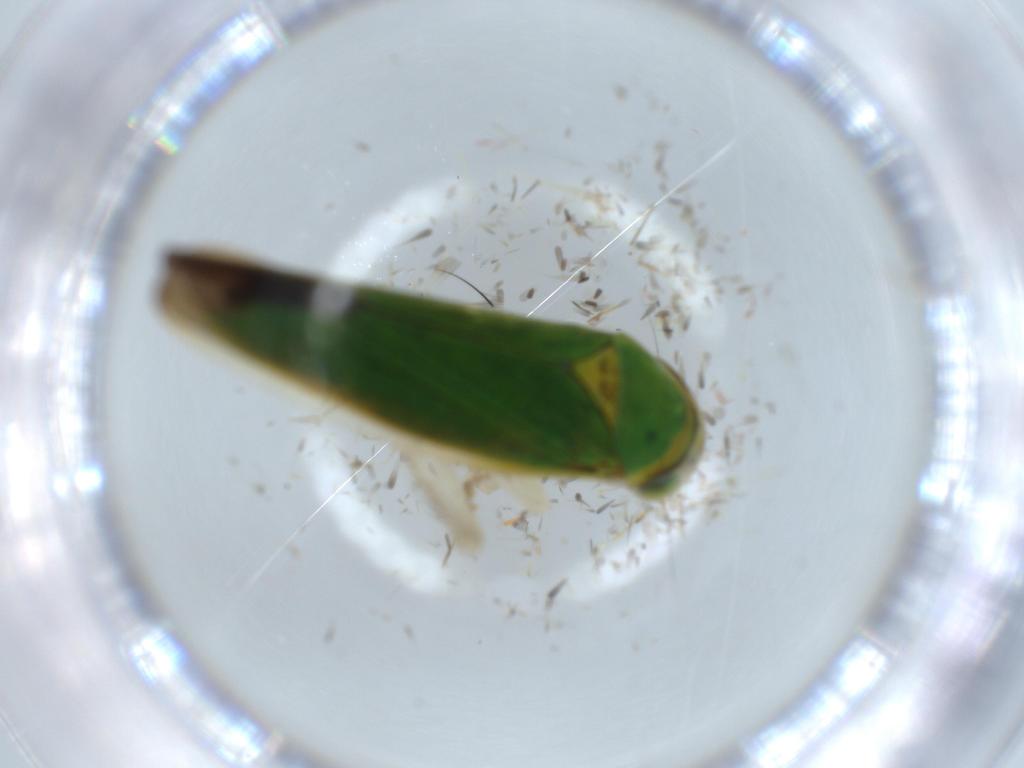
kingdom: Animalia
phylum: Arthropoda
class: Insecta
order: Hemiptera
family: Cicadellidae
